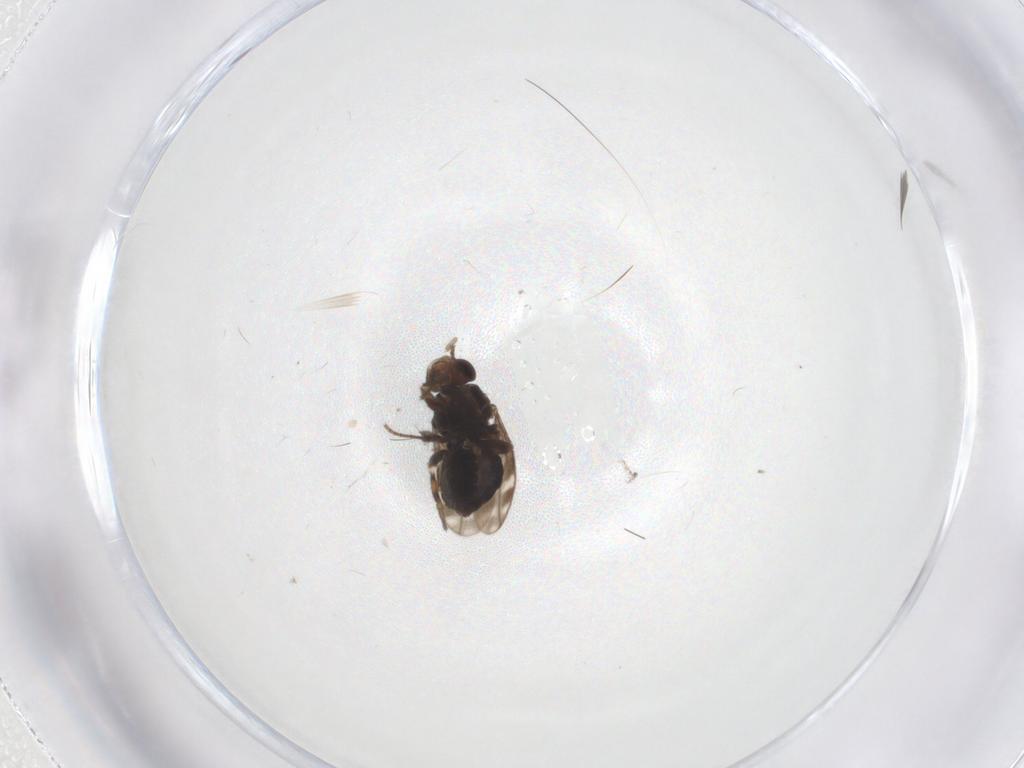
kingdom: Animalia
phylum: Arthropoda
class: Insecta
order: Diptera
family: Sphaeroceridae
